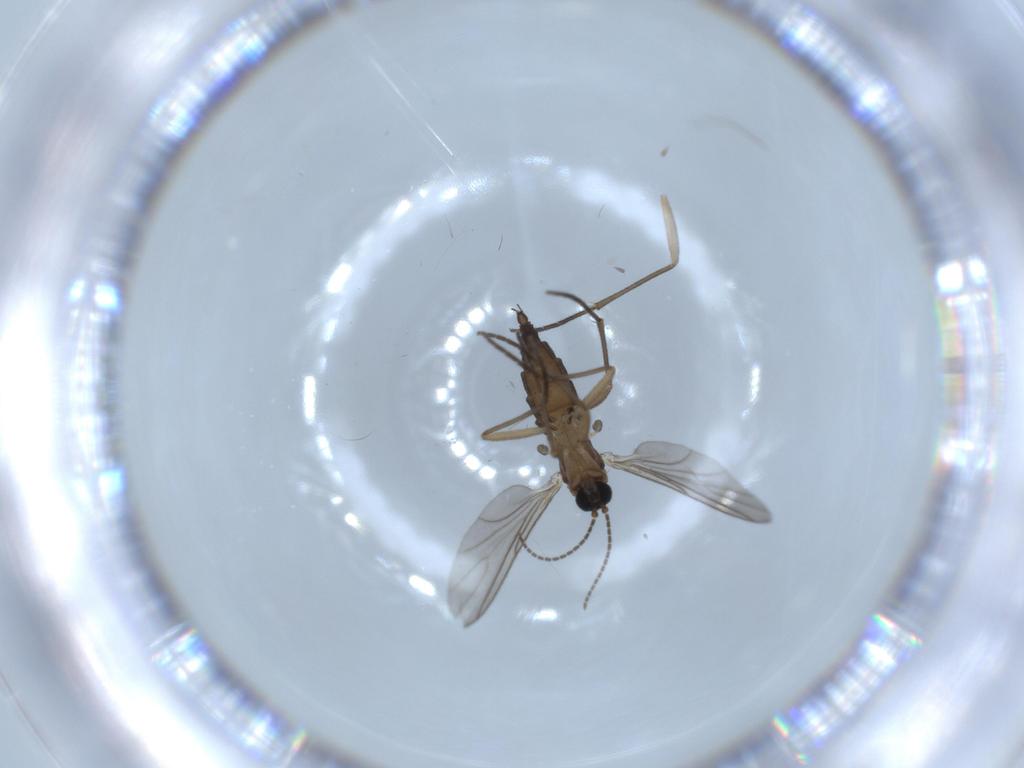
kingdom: Animalia
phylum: Arthropoda
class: Insecta
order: Diptera
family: Sciaridae
